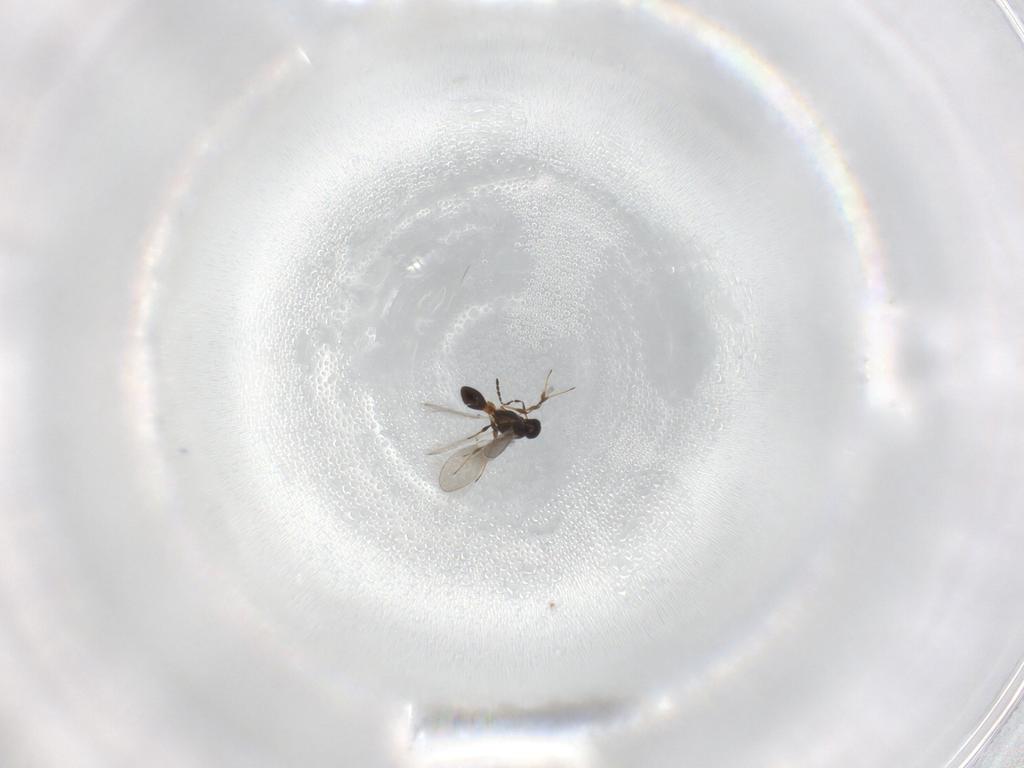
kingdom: Animalia
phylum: Arthropoda
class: Insecta
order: Hymenoptera
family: Platygastridae
